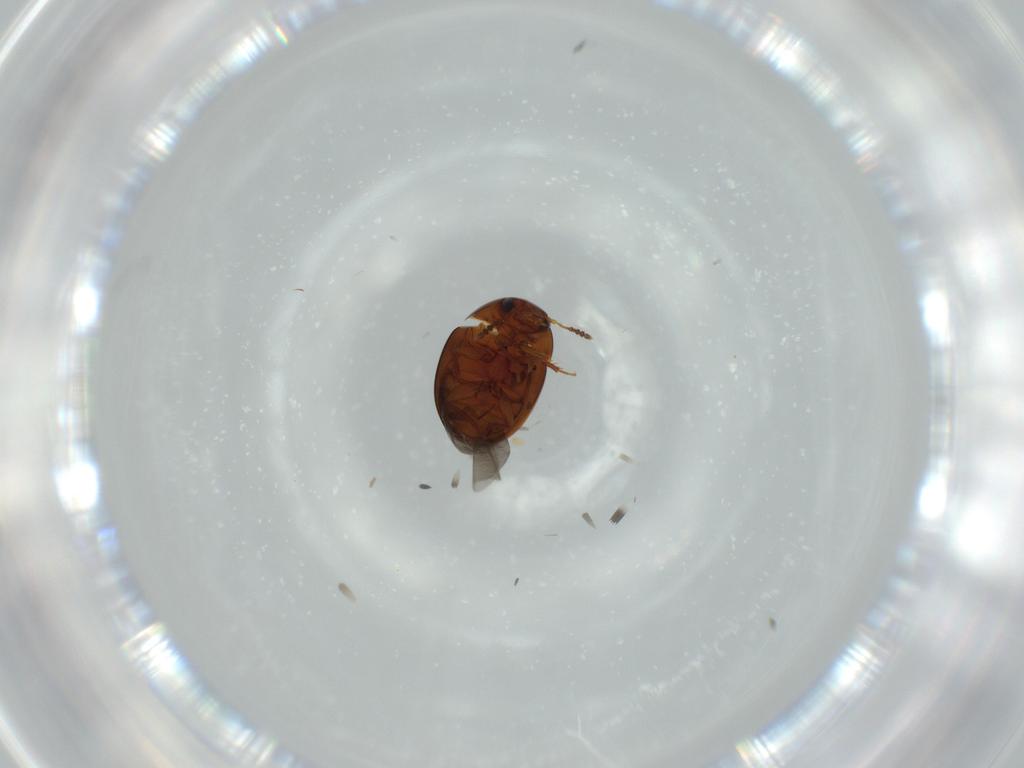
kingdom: Animalia
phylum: Arthropoda
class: Insecta
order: Coleoptera
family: Leiodidae
